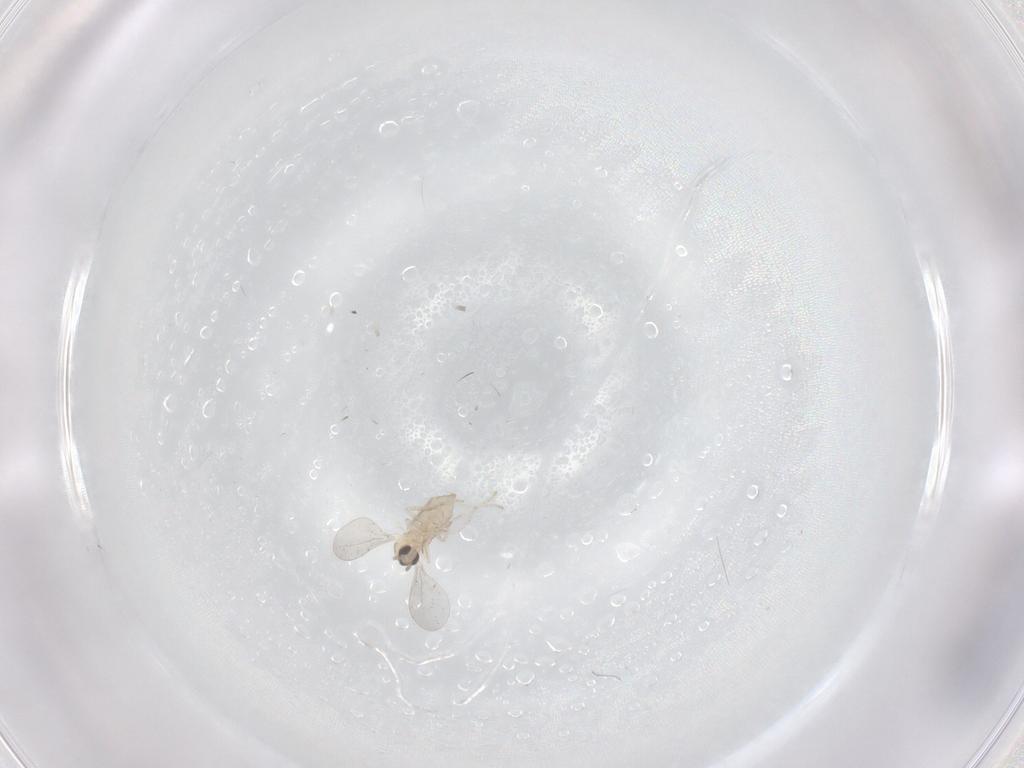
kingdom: Animalia
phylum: Arthropoda
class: Insecta
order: Diptera
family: Cecidomyiidae
